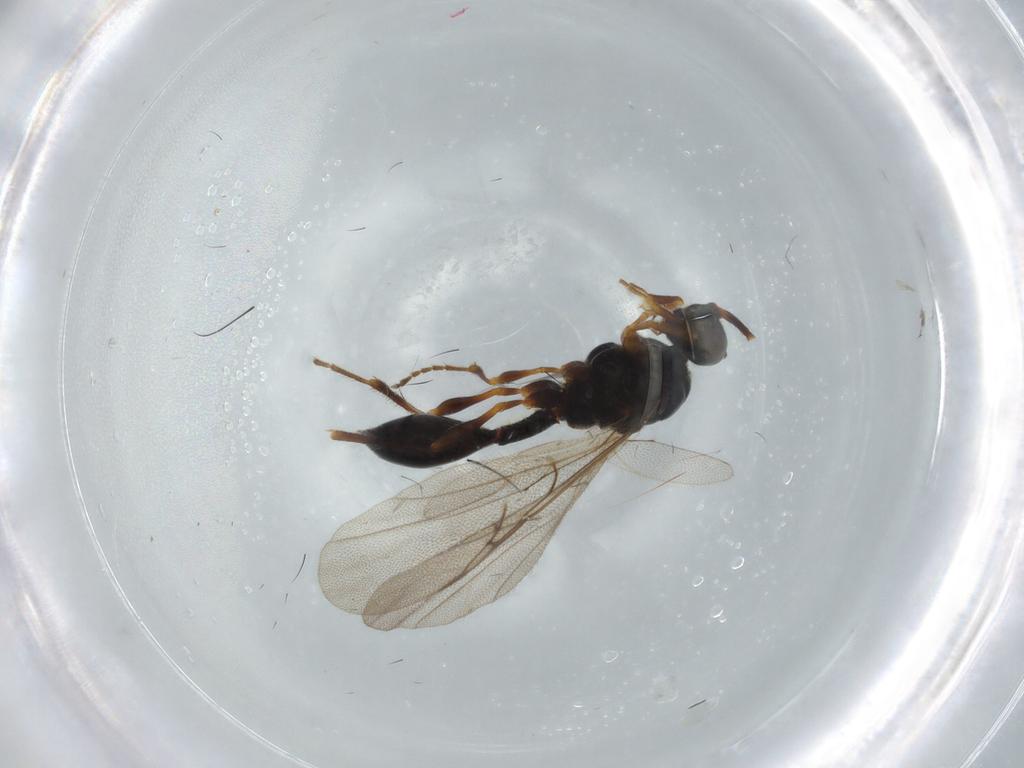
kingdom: Animalia
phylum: Arthropoda
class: Insecta
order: Hymenoptera
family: Diapriidae
